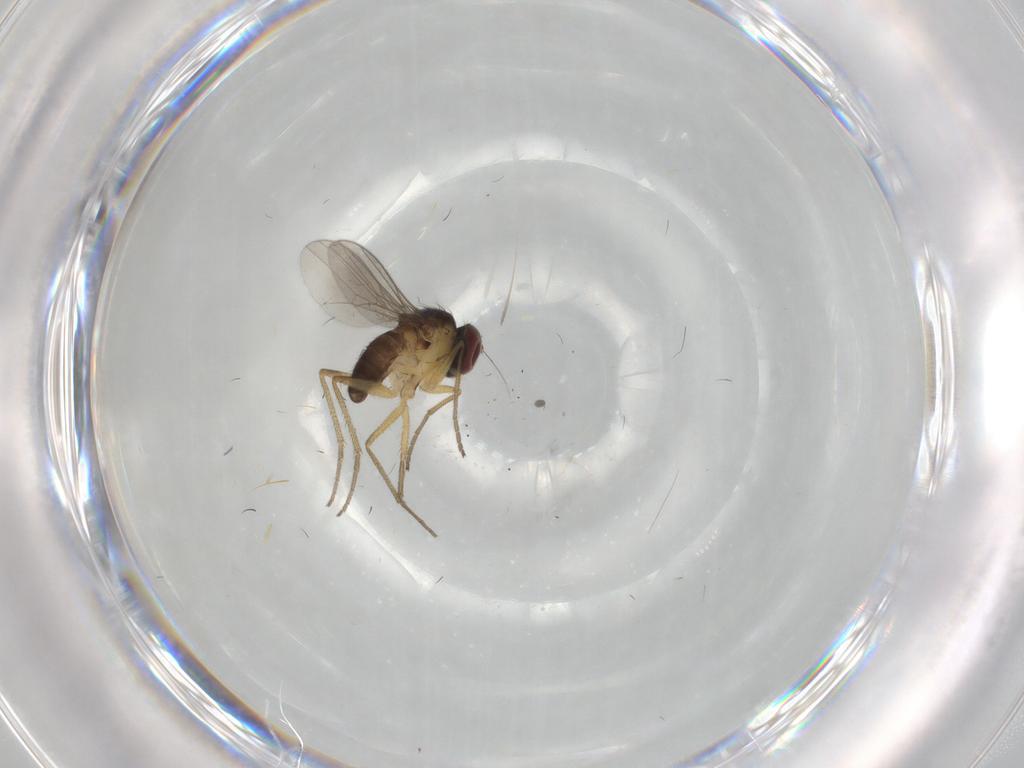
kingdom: Animalia
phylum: Arthropoda
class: Insecta
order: Diptera
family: Dolichopodidae
